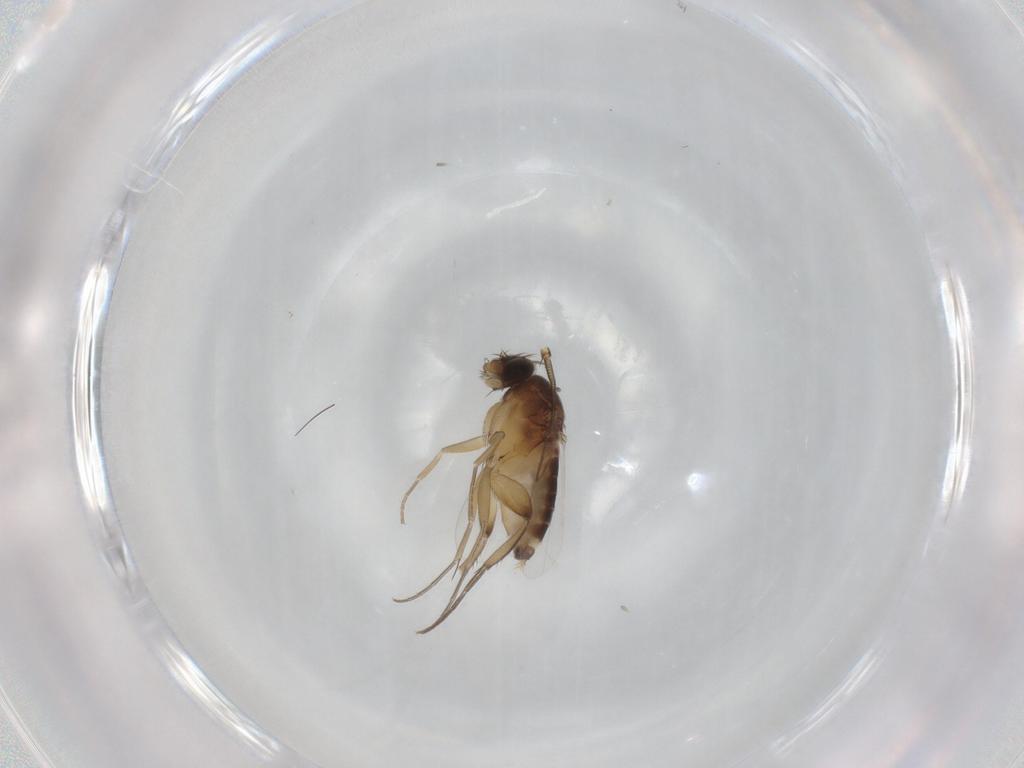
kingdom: Animalia
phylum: Arthropoda
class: Insecta
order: Diptera
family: Phoridae
